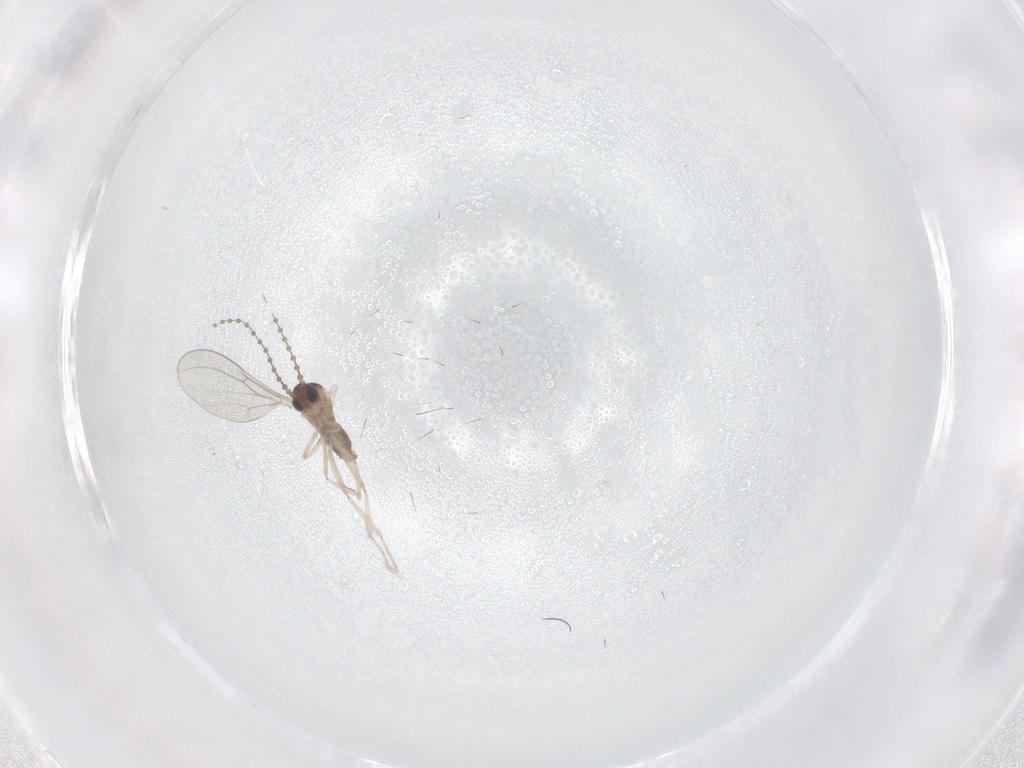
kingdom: Animalia
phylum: Arthropoda
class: Insecta
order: Diptera
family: Cecidomyiidae
